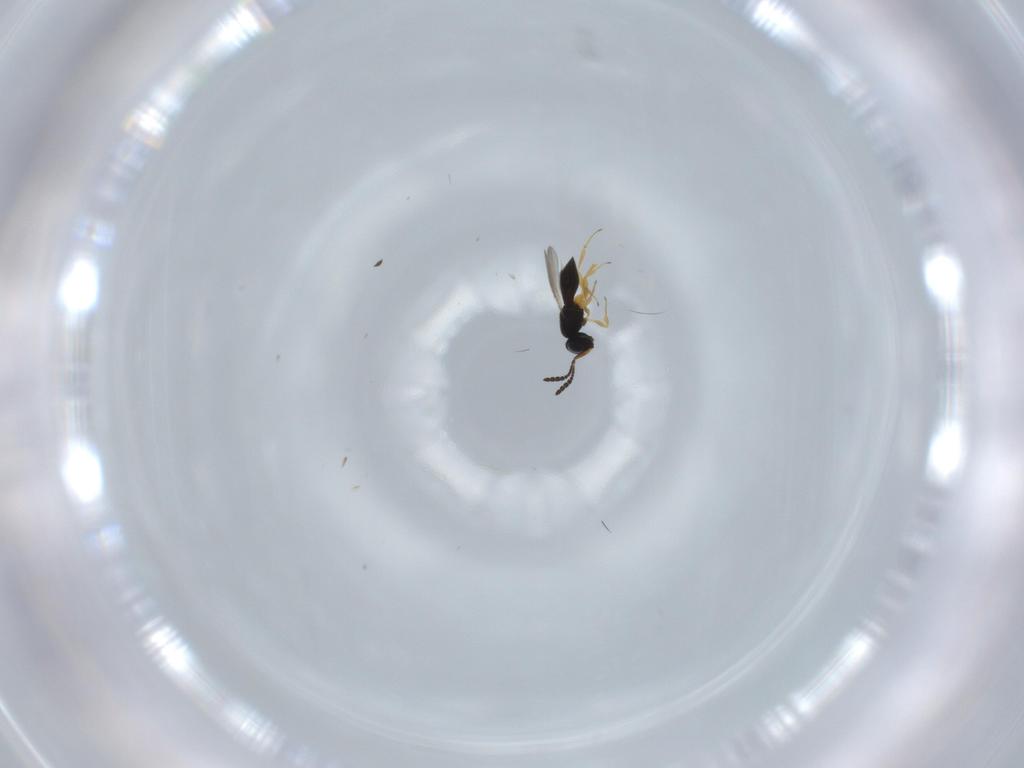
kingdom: Animalia
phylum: Arthropoda
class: Insecta
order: Hymenoptera
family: Scelionidae
